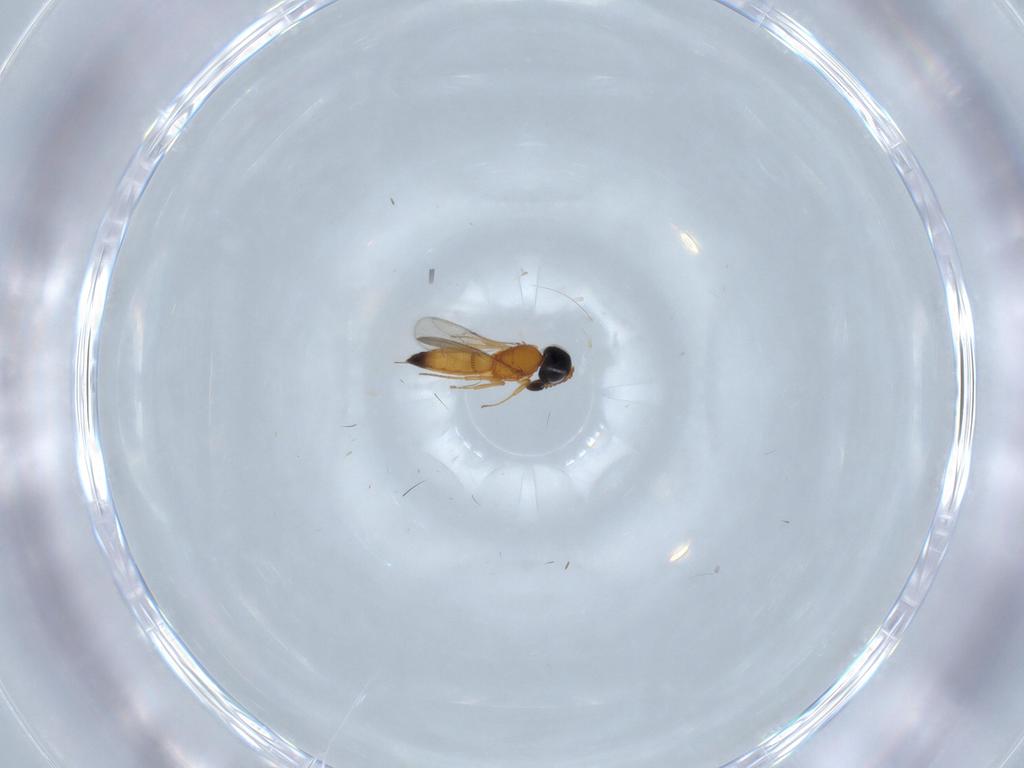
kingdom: Animalia
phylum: Arthropoda
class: Insecta
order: Hymenoptera
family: Scelionidae
